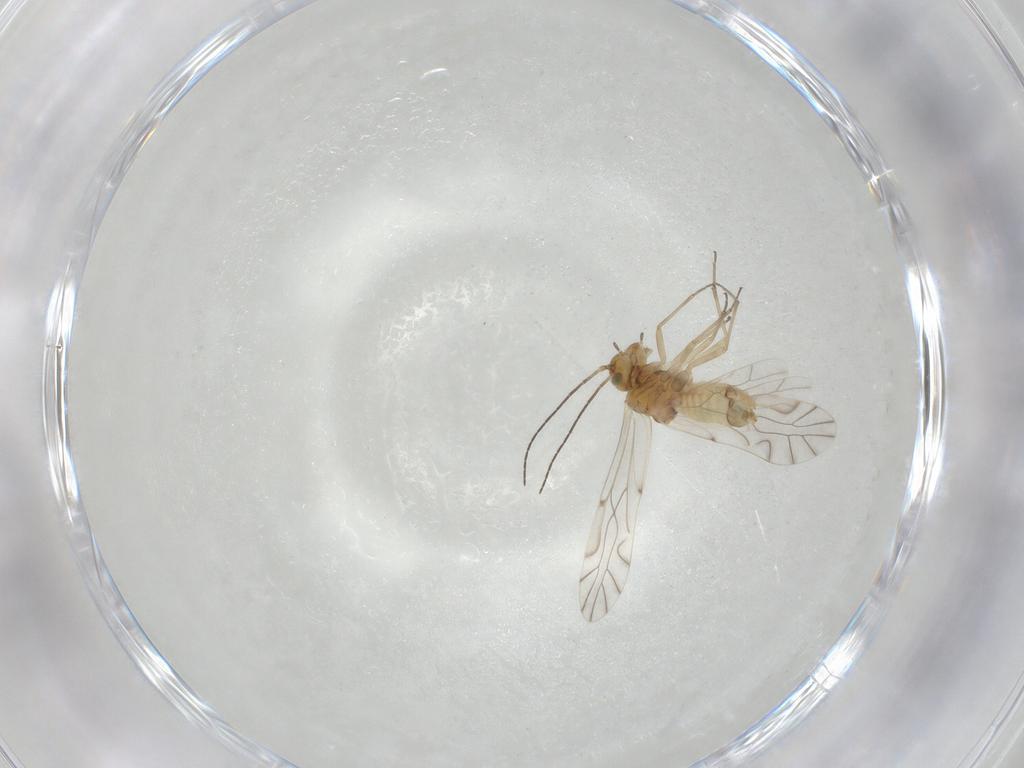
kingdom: Animalia
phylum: Arthropoda
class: Insecta
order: Psocodea
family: Lachesillidae
